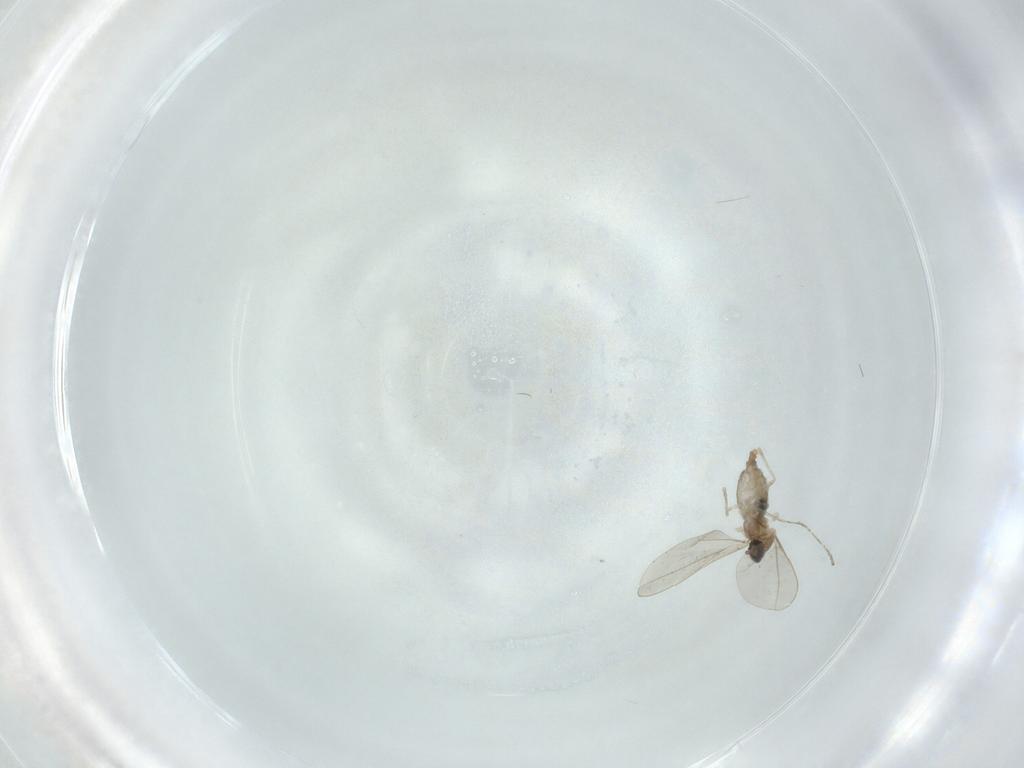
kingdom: Animalia
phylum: Arthropoda
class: Insecta
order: Diptera
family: Cecidomyiidae
